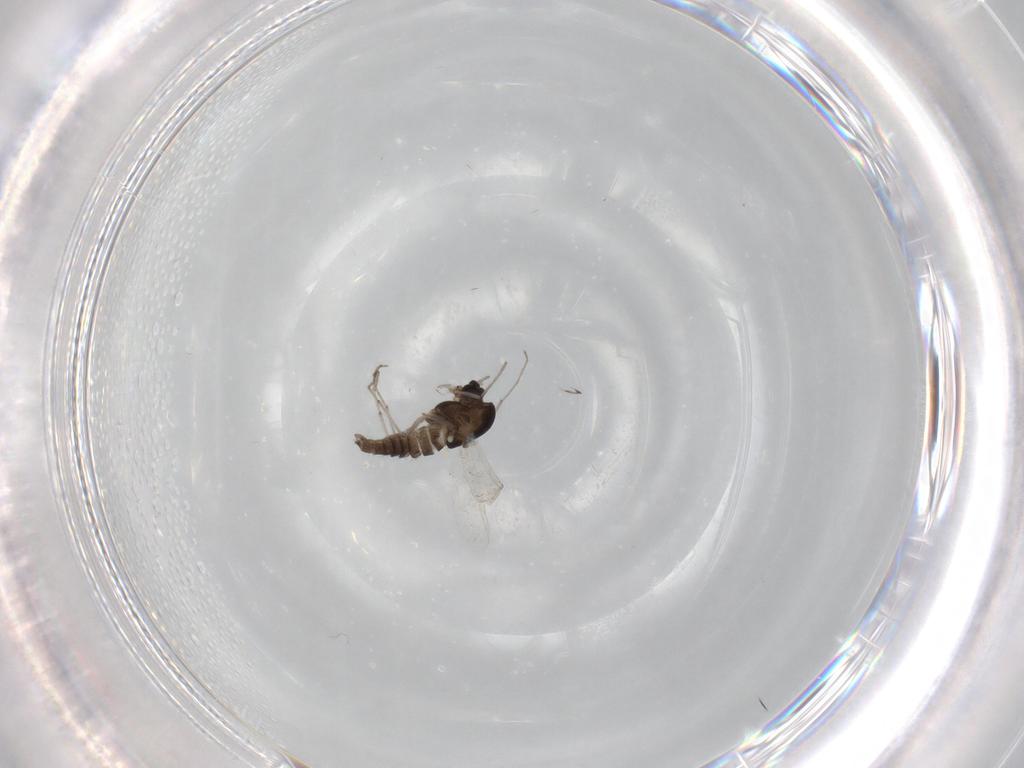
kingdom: Animalia
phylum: Arthropoda
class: Insecta
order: Diptera
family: Chironomidae
